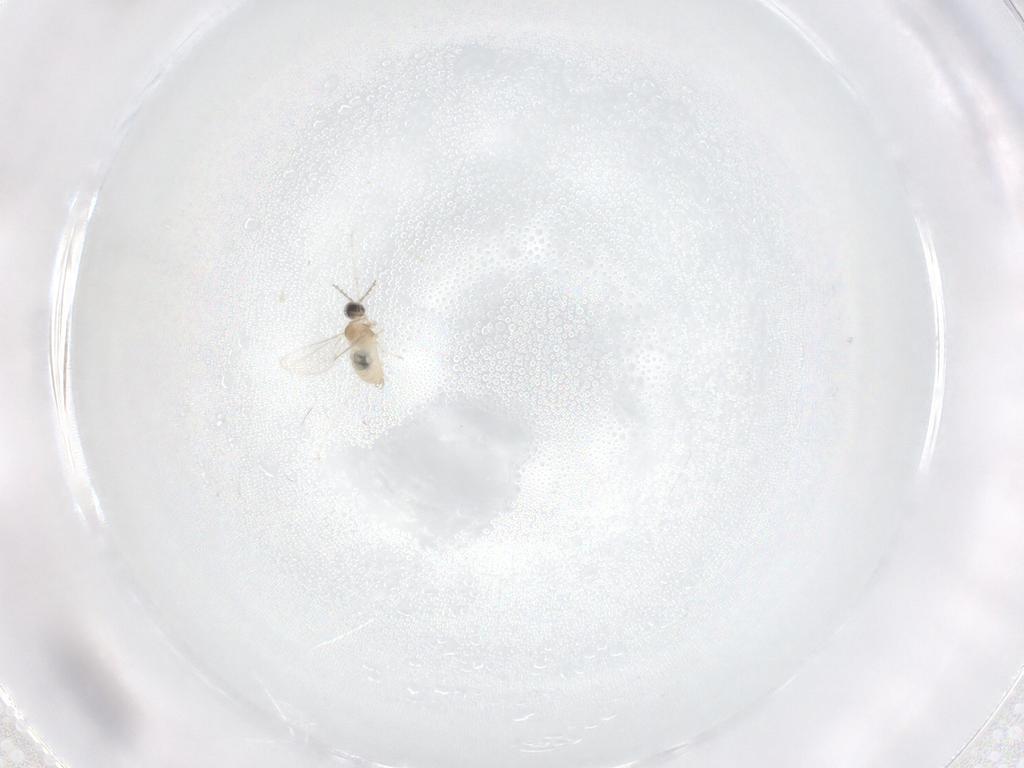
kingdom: Animalia
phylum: Arthropoda
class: Insecta
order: Diptera
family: Cecidomyiidae
